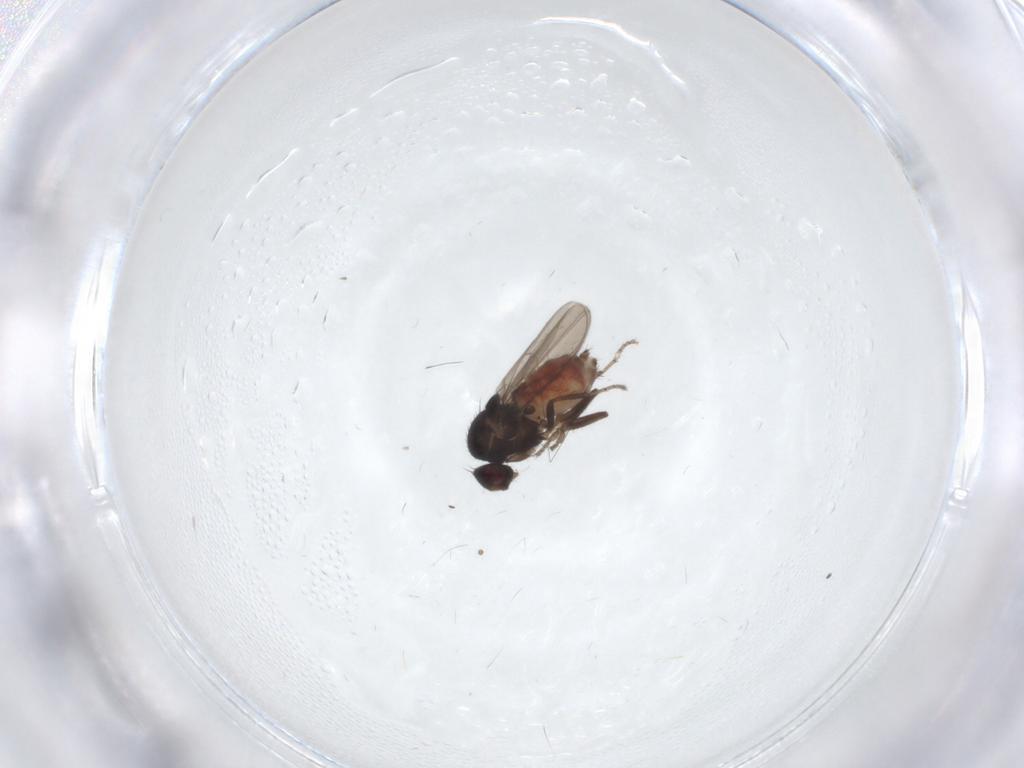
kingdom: Animalia
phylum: Arthropoda
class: Insecta
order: Diptera
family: Sphaeroceridae
